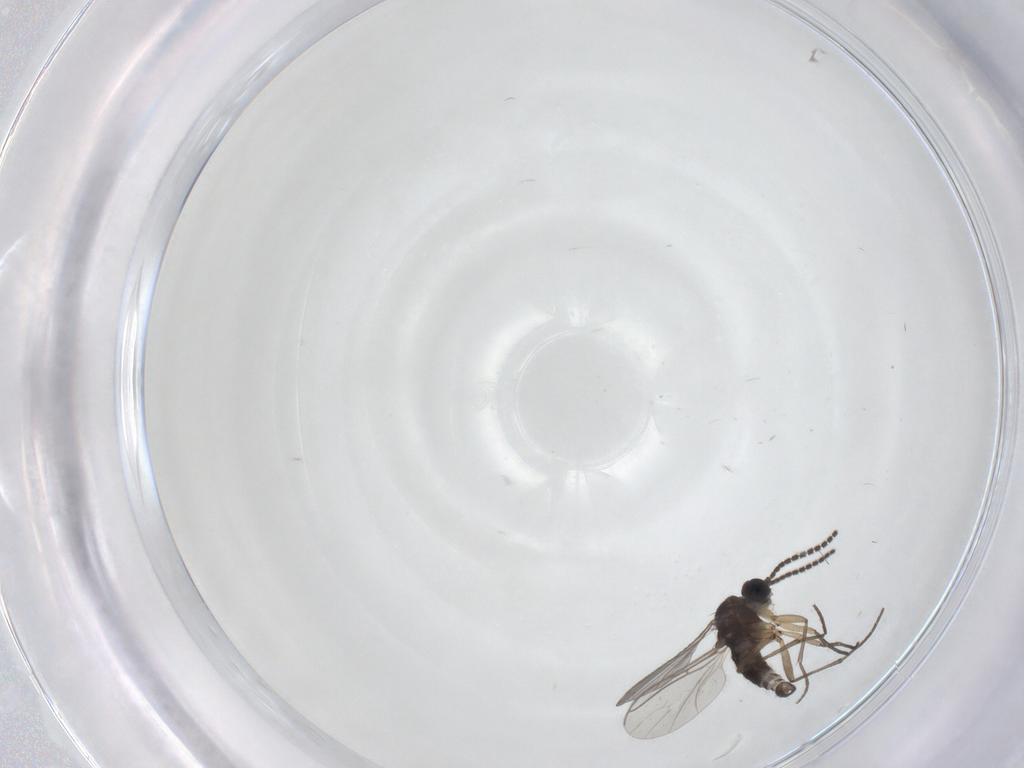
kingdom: Animalia
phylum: Arthropoda
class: Insecta
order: Diptera
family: Sciaridae
